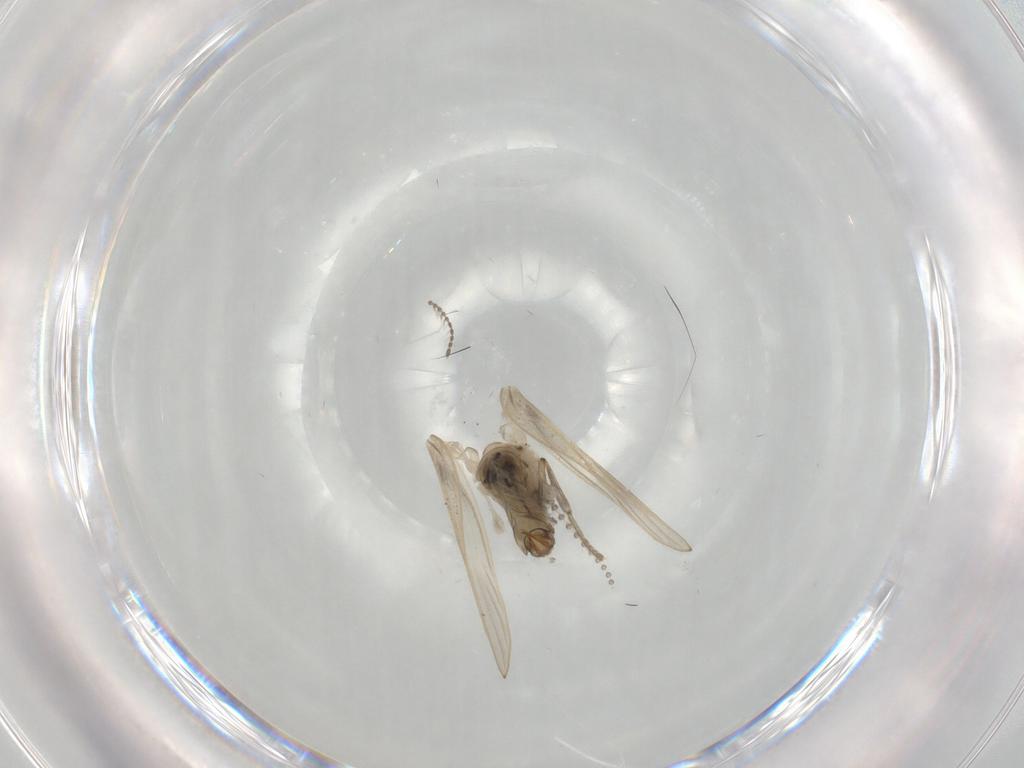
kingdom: Animalia
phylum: Arthropoda
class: Insecta
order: Diptera
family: Psychodidae
